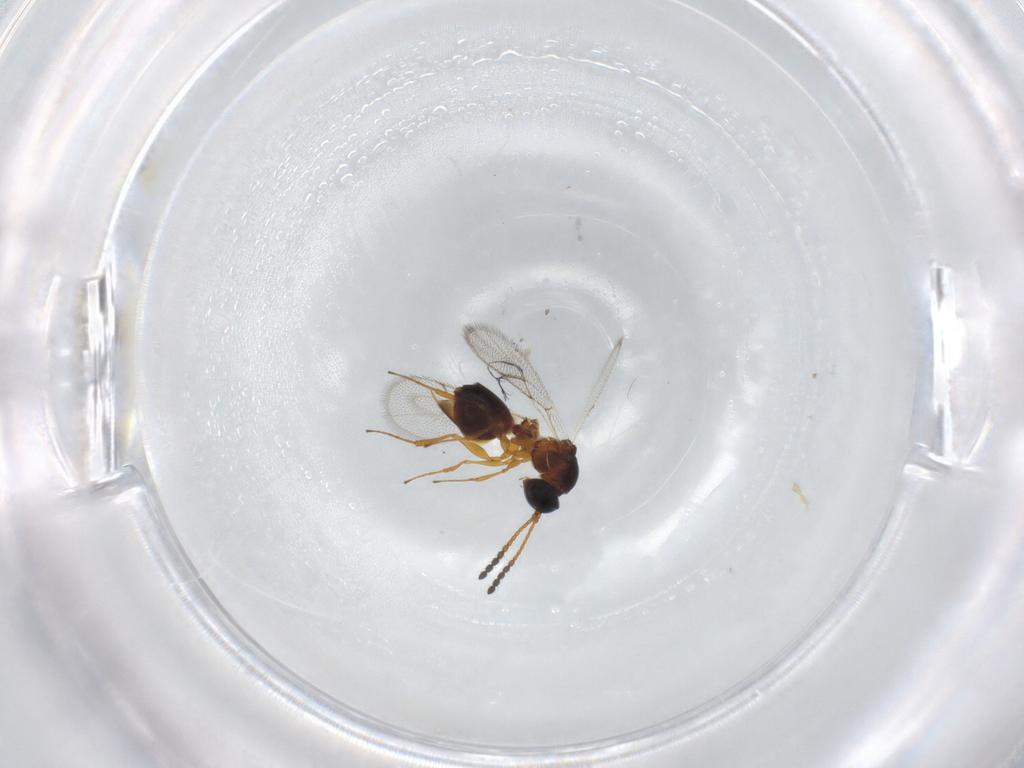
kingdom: Animalia
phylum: Arthropoda
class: Insecta
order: Hymenoptera
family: Figitidae
